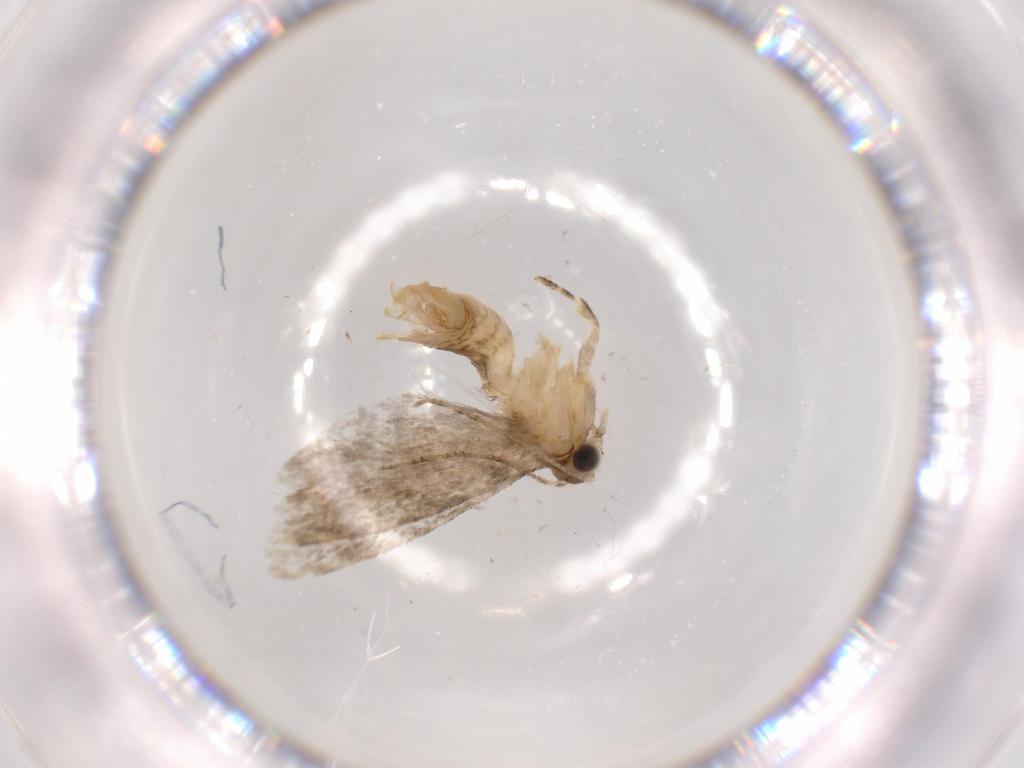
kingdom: Animalia
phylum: Arthropoda
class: Insecta
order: Lepidoptera
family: Tineidae
